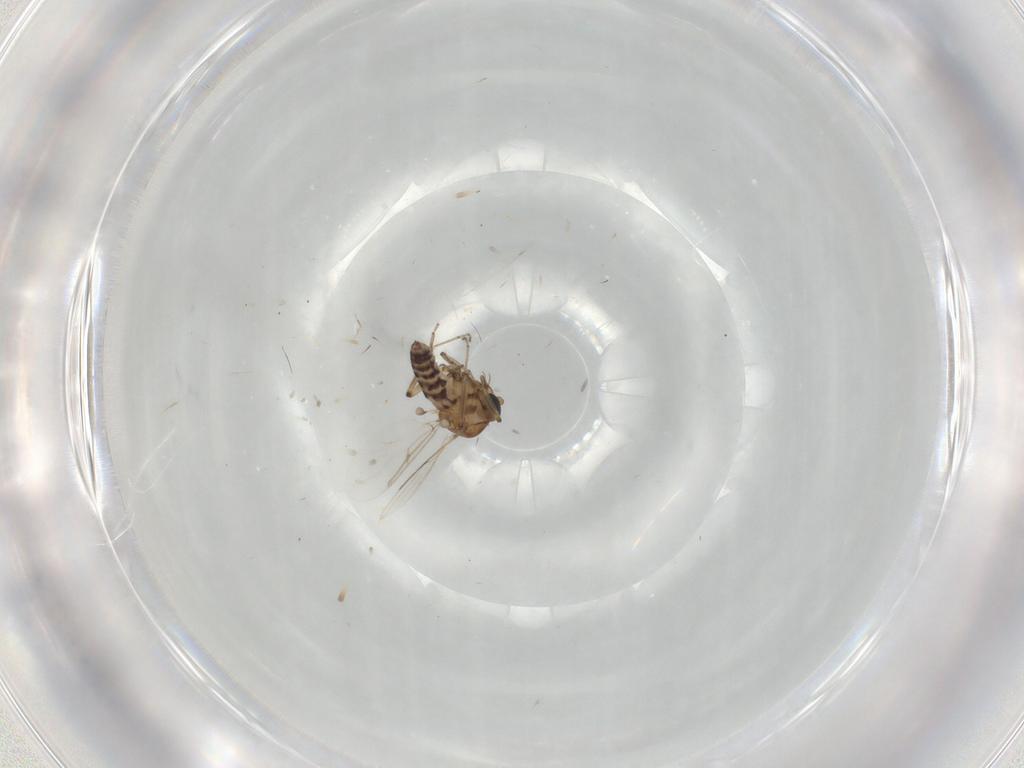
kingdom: Animalia
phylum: Arthropoda
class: Insecta
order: Diptera
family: Ceratopogonidae
